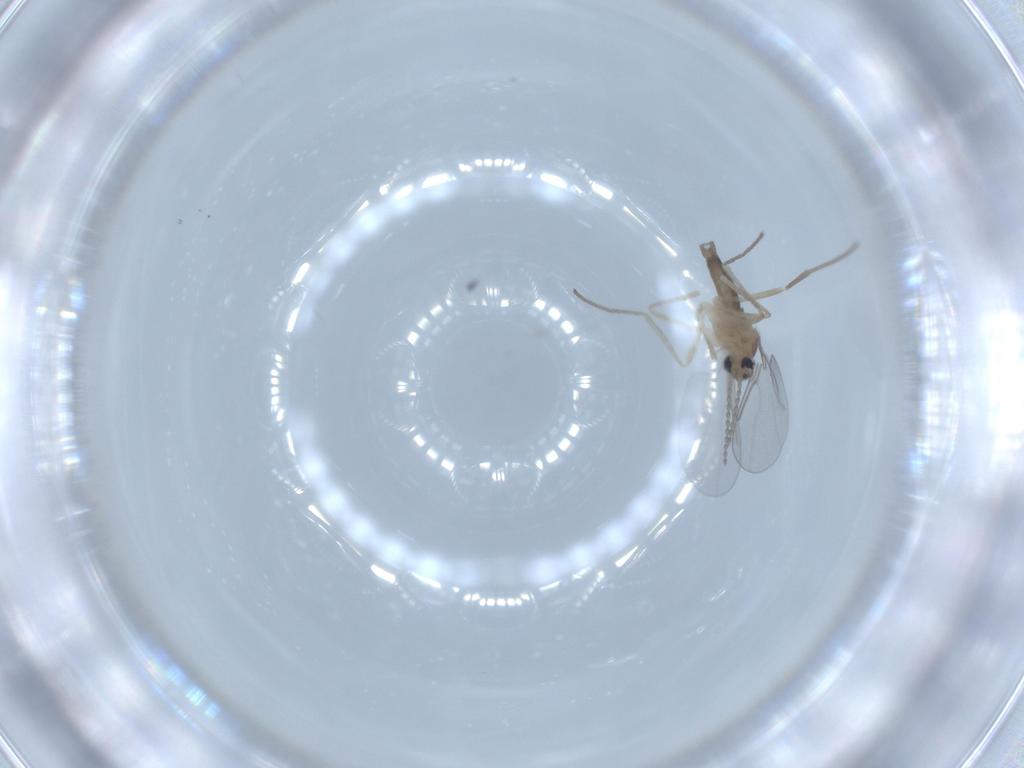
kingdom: Animalia
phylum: Arthropoda
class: Insecta
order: Diptera
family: Cecidomyiidae
